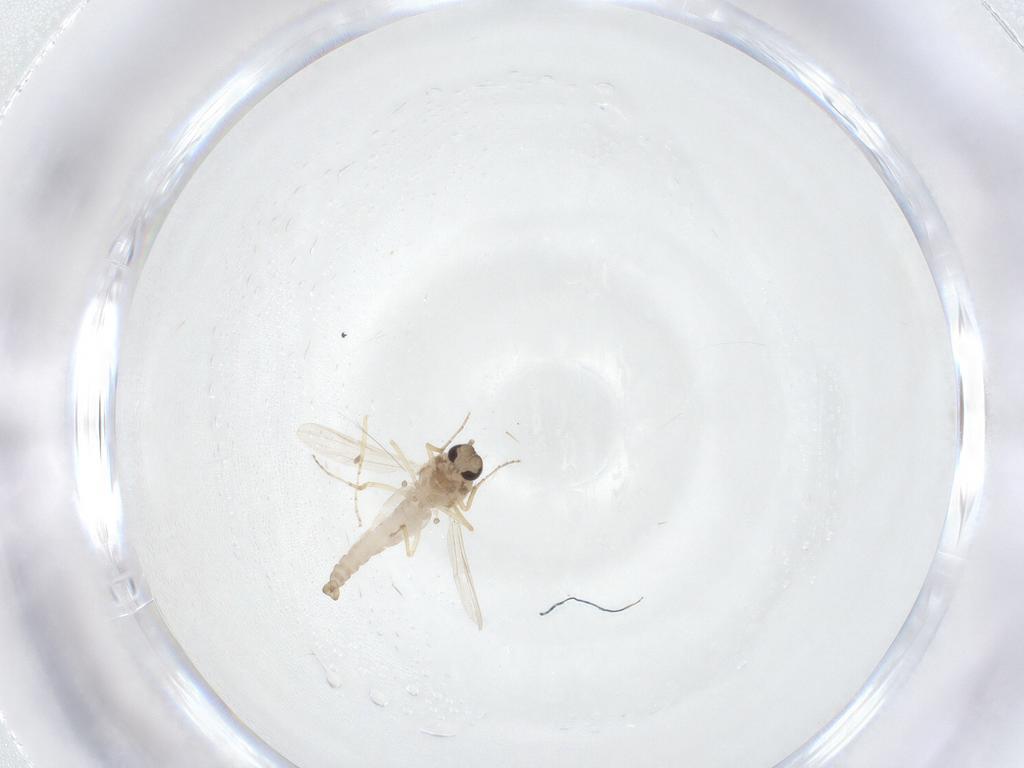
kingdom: Animalia
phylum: Arthropoda
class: Insecta
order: Diptera
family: Ceratopogonidae
